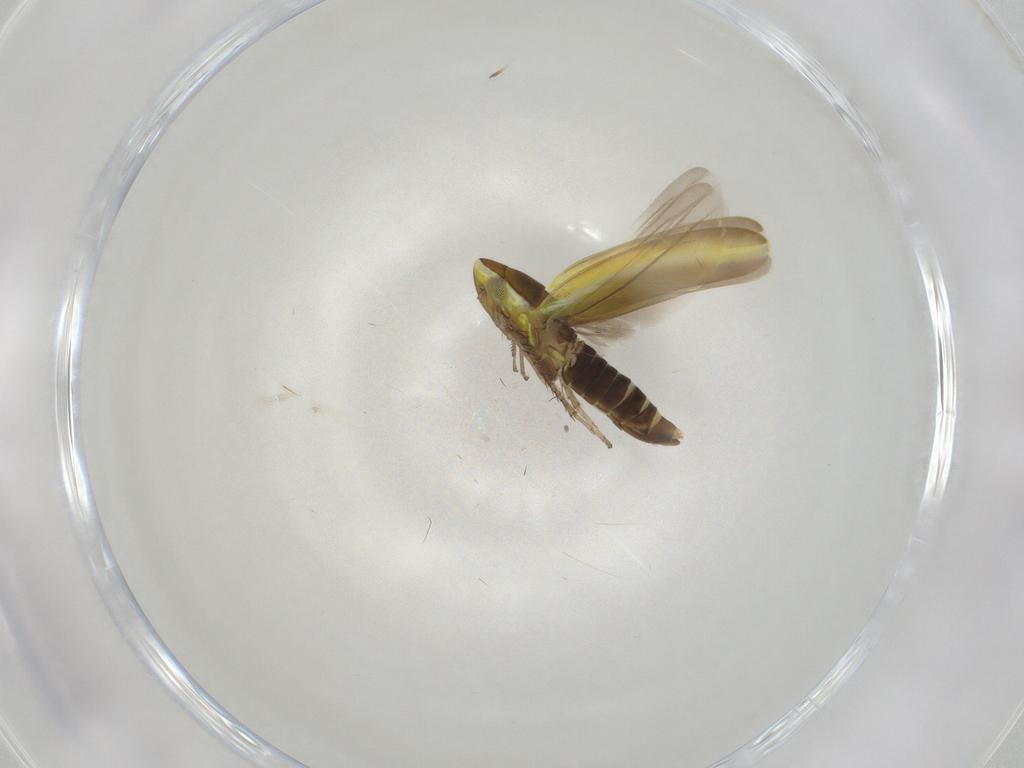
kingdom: Animalia
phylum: Arthropoda
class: Insecta
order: Hemiptera
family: Cicadellidae
